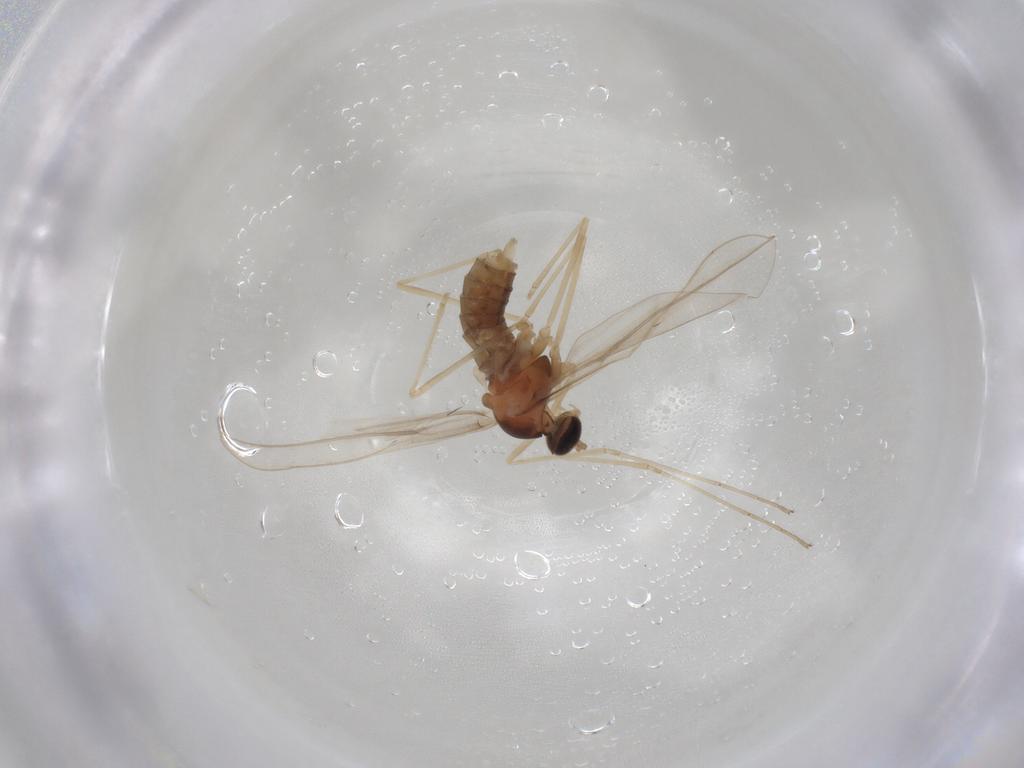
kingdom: Animalia
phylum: Arthropoda
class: Insecta
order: Diptera
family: Cecidomyiidae
